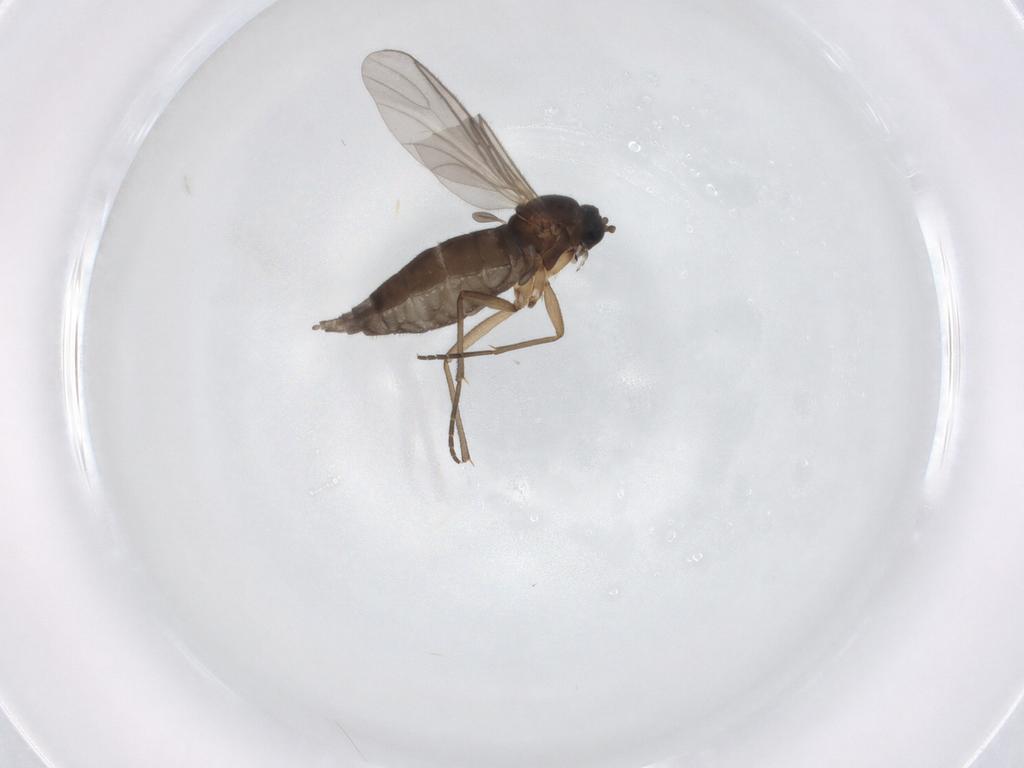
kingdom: Animalia
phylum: Arthropoda
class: Insecta
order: Diptera
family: Sciaridae
